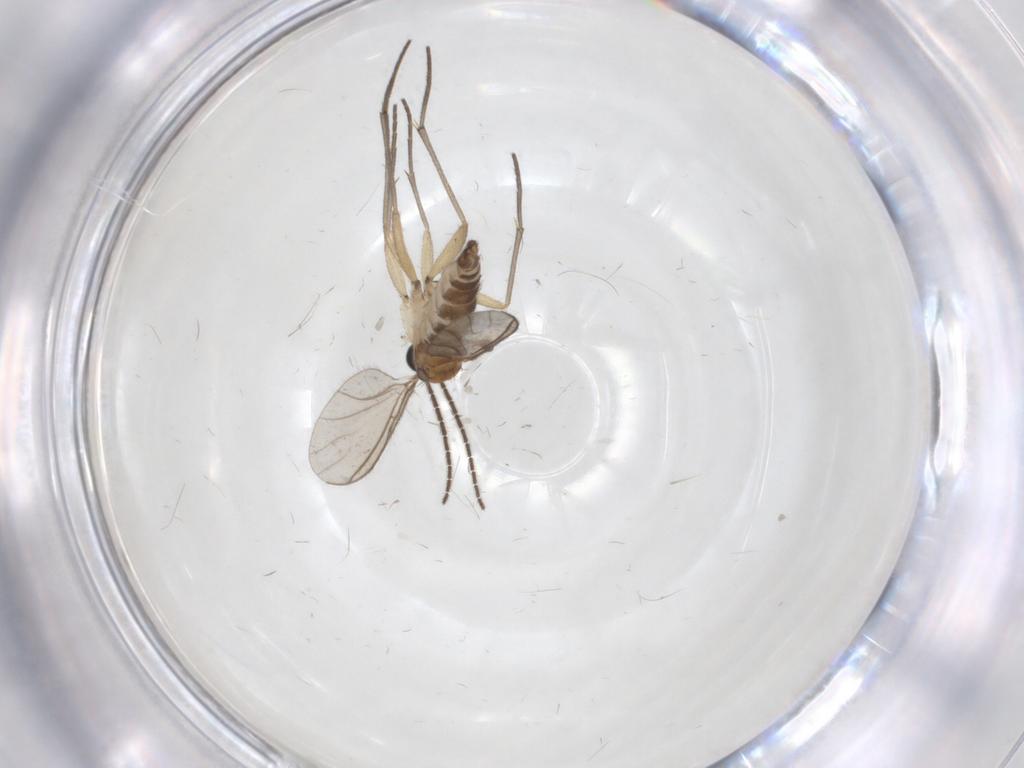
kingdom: Animalia
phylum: Arthropoda
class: Insecta
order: Diptera
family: Sciaridae
